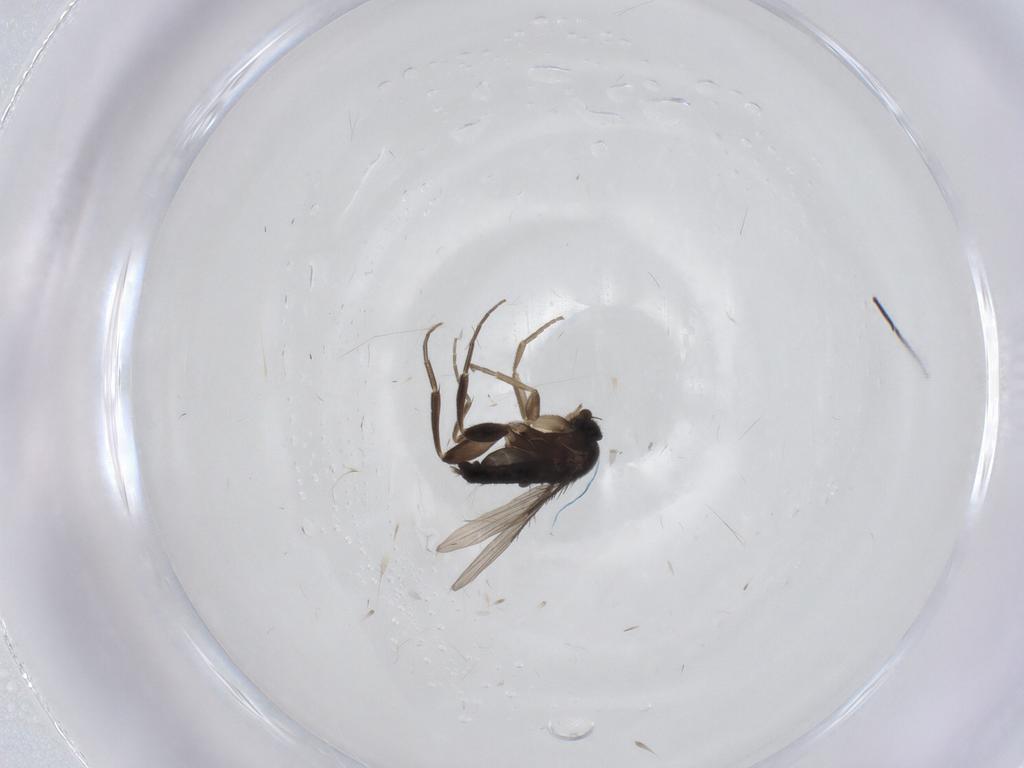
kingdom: Animalia
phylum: Arthropoda
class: Insecta
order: Diptera
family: Phoridae
